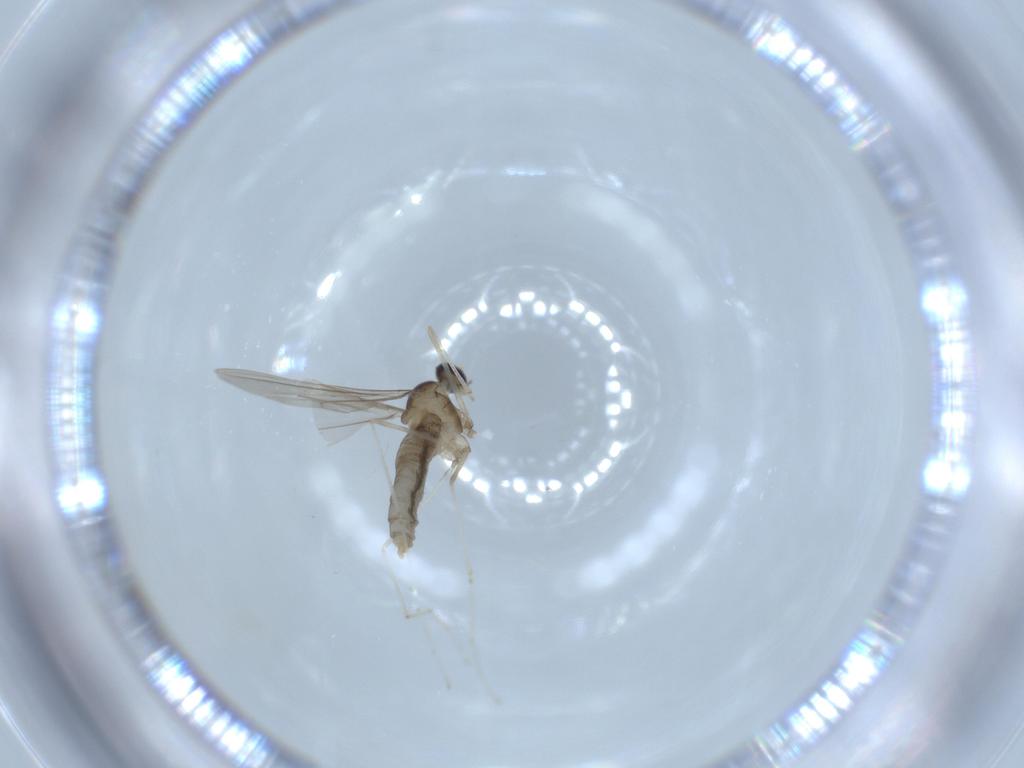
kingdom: Animalia
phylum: Arthropoda
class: Insecta
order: Diptera
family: Cecidomyiidae
